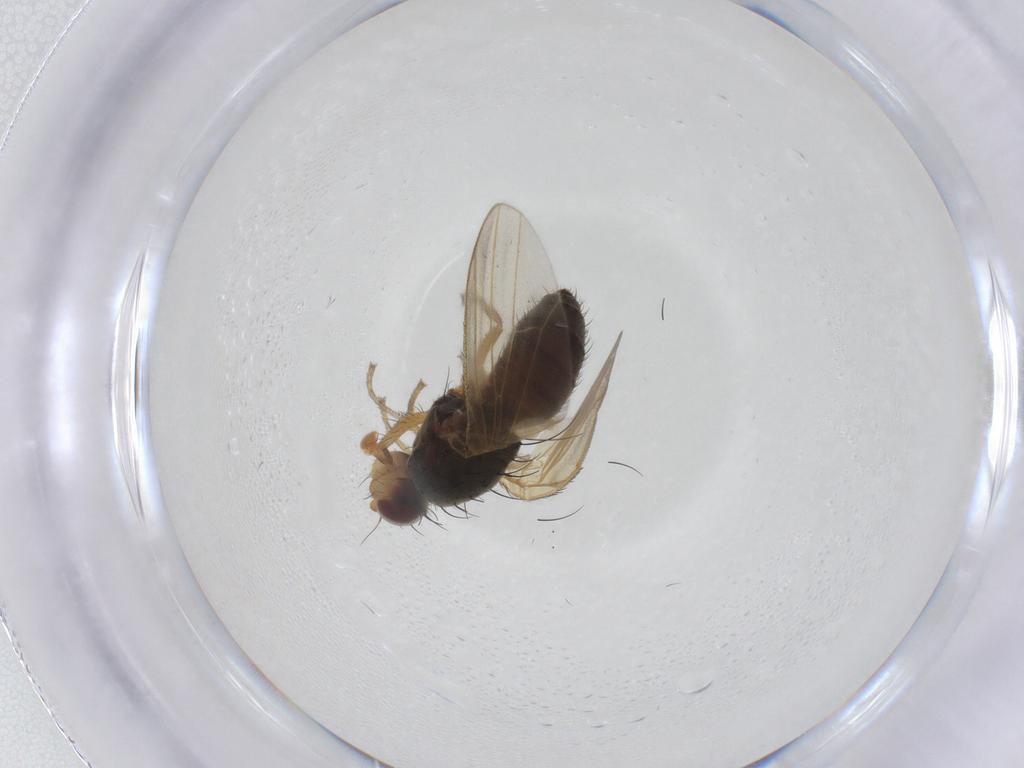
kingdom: Animalia
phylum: Arthropoda
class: Insecta
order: Diptera
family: Heleomyzidae
